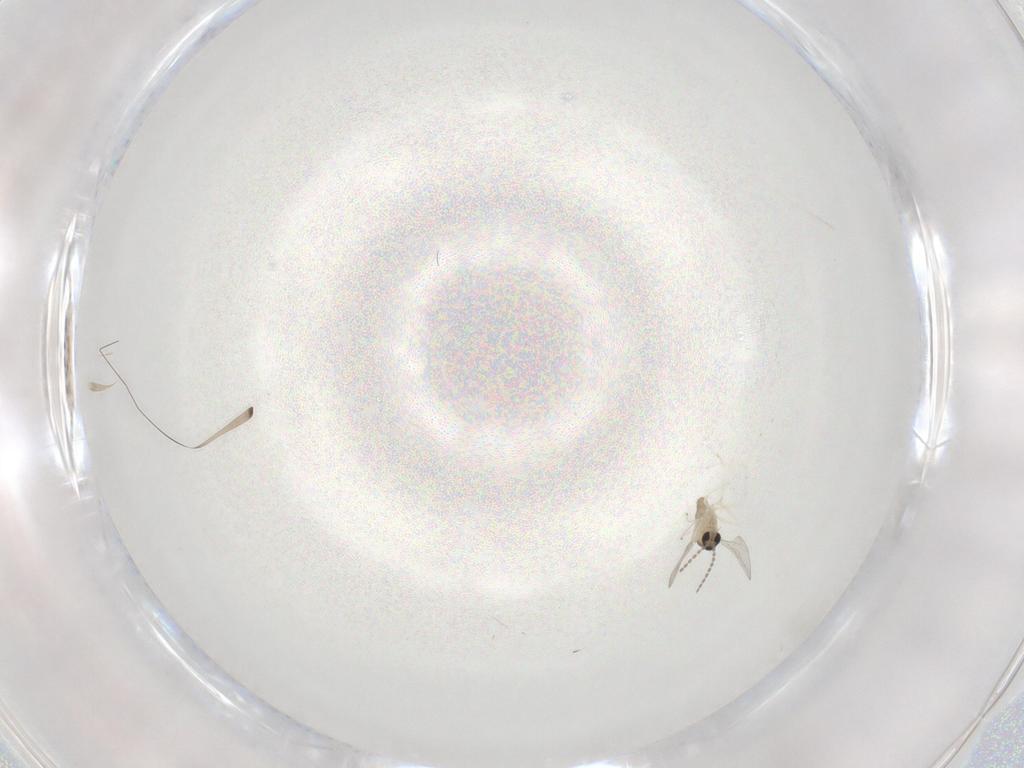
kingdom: Animalia
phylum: Arthropoda
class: Insecta
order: Diptera
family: Cecidomyiidae
